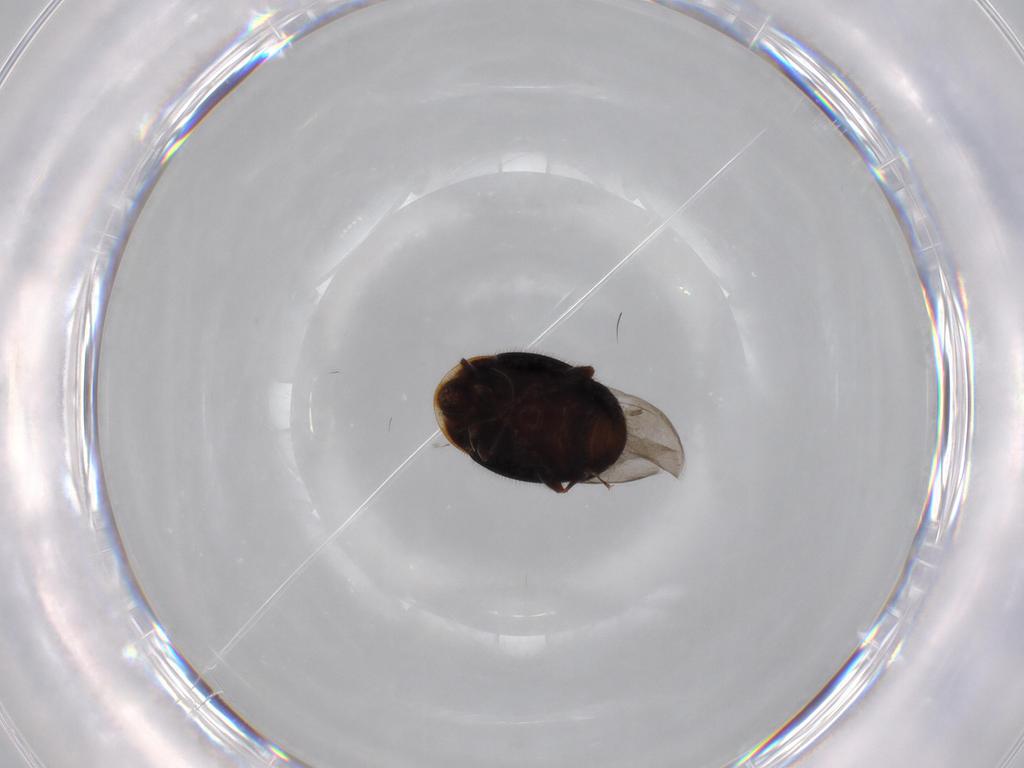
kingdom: Animalia
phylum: Arthropoda
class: Insecta
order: Coleoptera
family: Corylophidae
